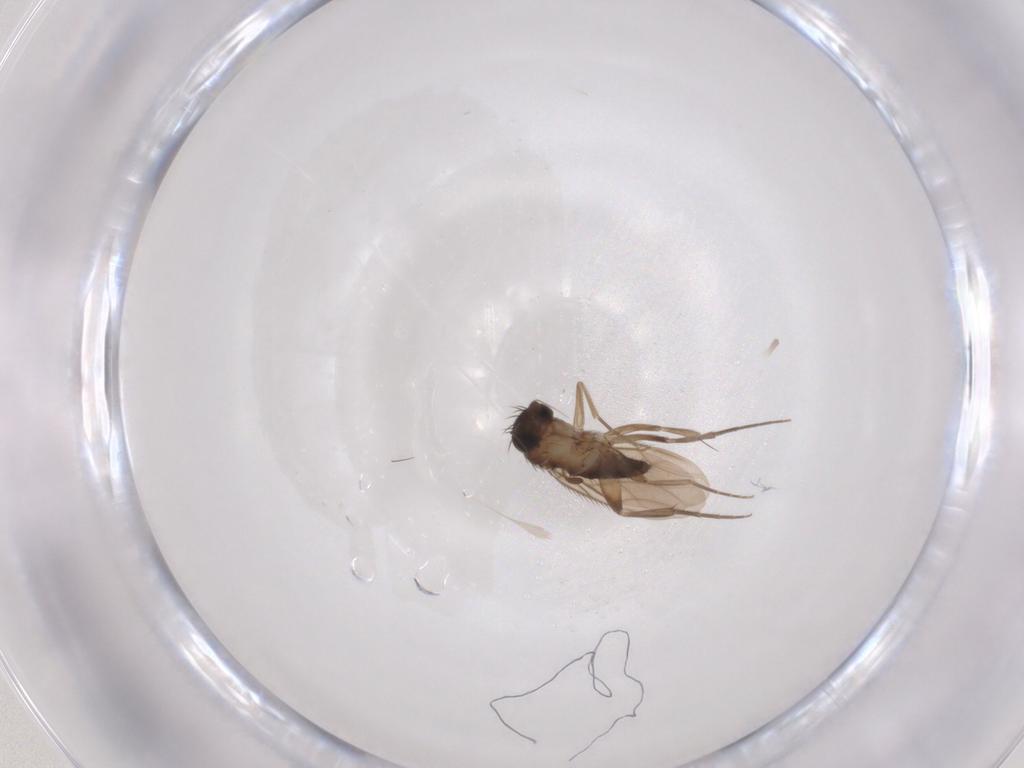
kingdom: Animalia
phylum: Arthropoda
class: Insecta
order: Diptera
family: Phoridae
